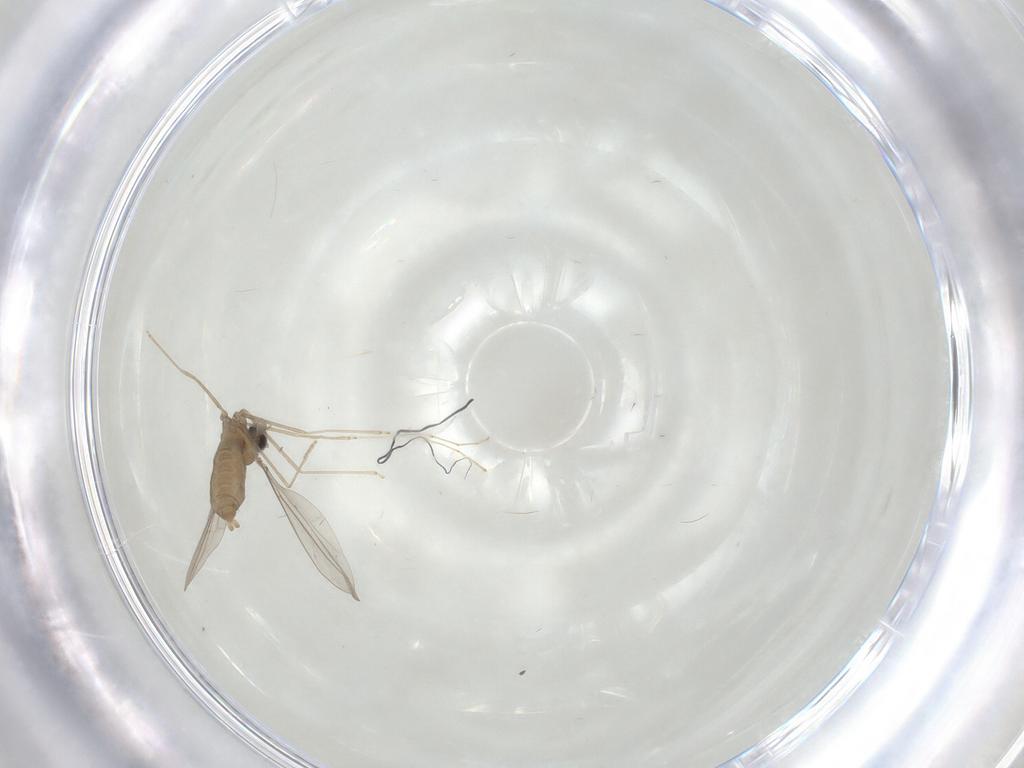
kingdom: Animalia
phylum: Arthropoda
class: Insecta
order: Diptera
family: Cecidomyiidae
